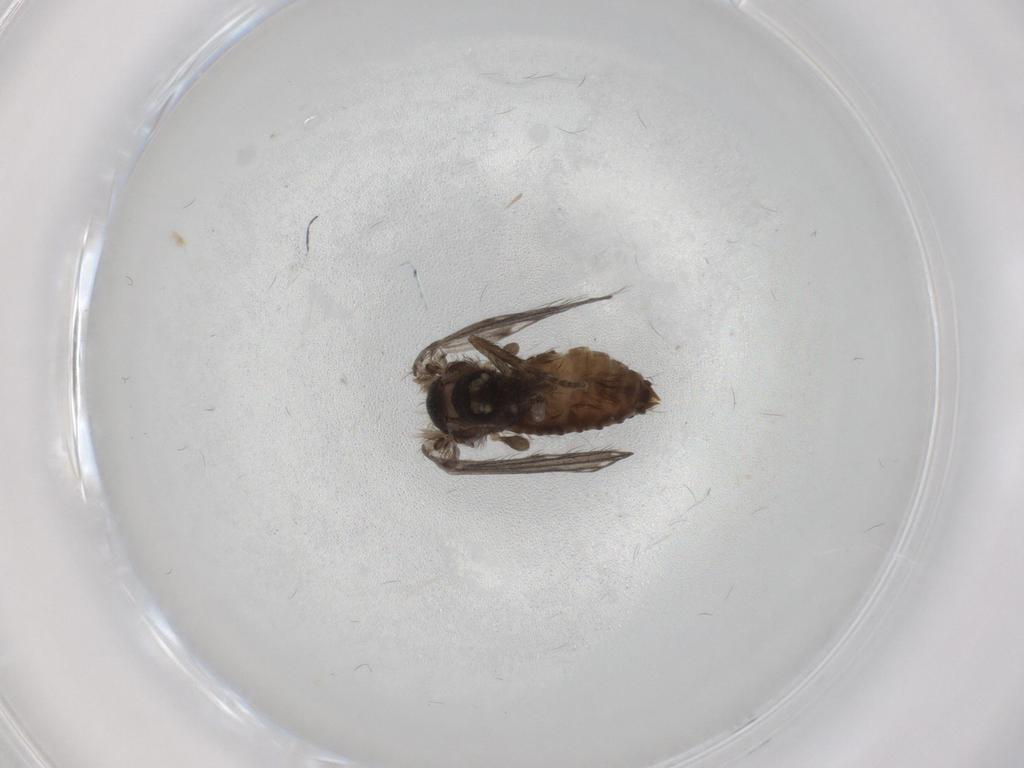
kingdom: Animalia
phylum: Arthropoda
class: Insecta
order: Diptera
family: Psychodidae
